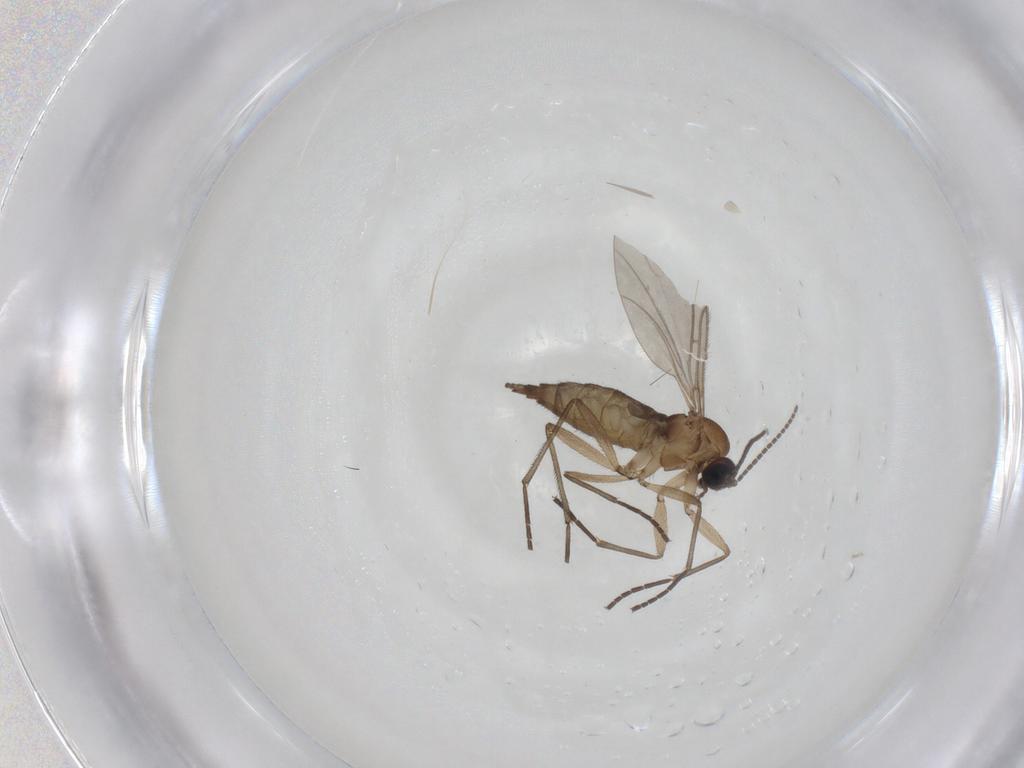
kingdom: Animalia
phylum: Arthropoda
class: Insecta
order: Diptera
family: Sciaridae
